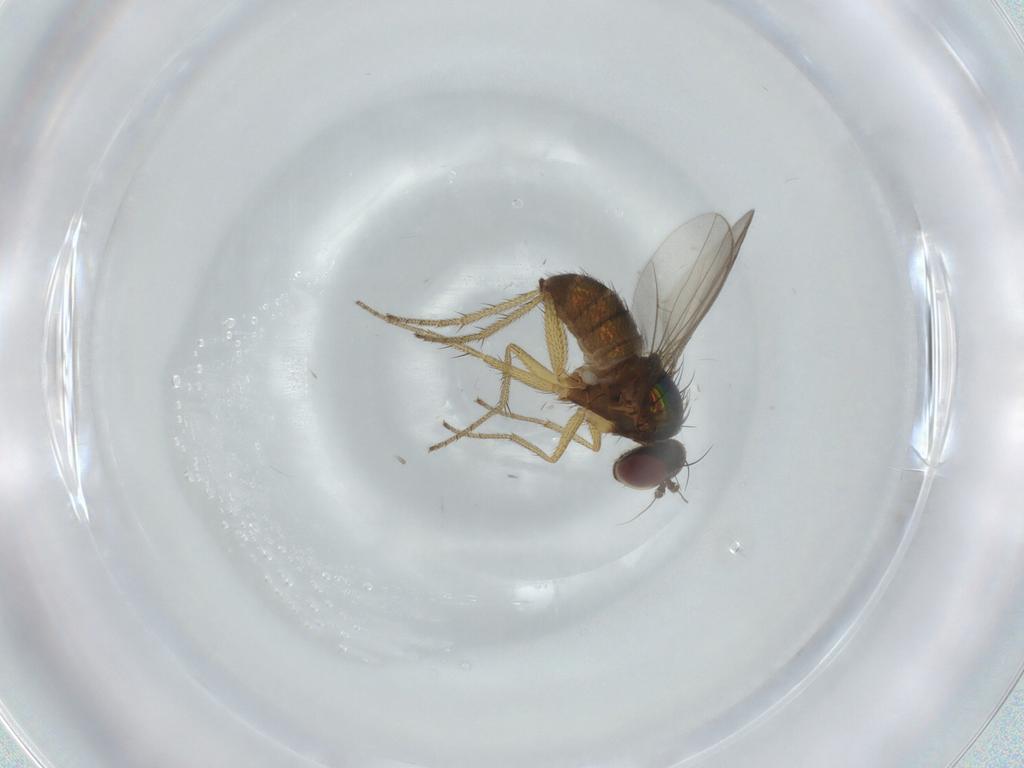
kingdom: Animalia
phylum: Arthropoda
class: Insecta
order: Diptera
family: Dolichopodidae
